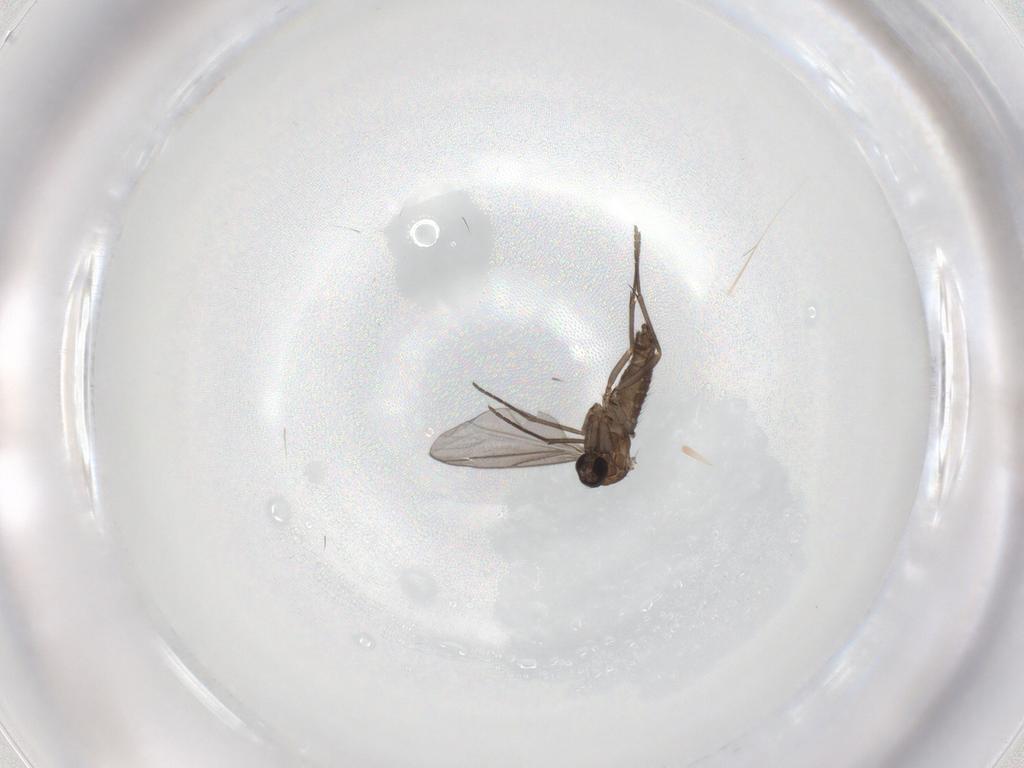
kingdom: Animalia
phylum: Arthropoda
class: Insecta
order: Diptera
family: Sciaridae
